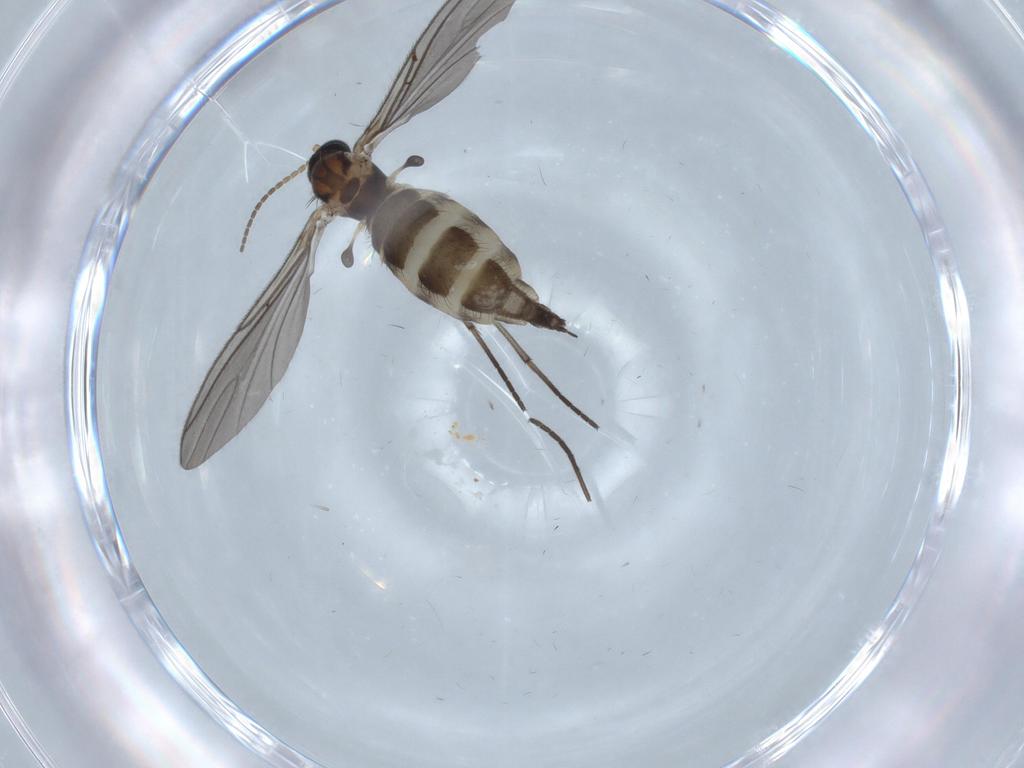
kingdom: Animalia
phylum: Arthropoda
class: Insecta
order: Diptera
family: Sciaridae
